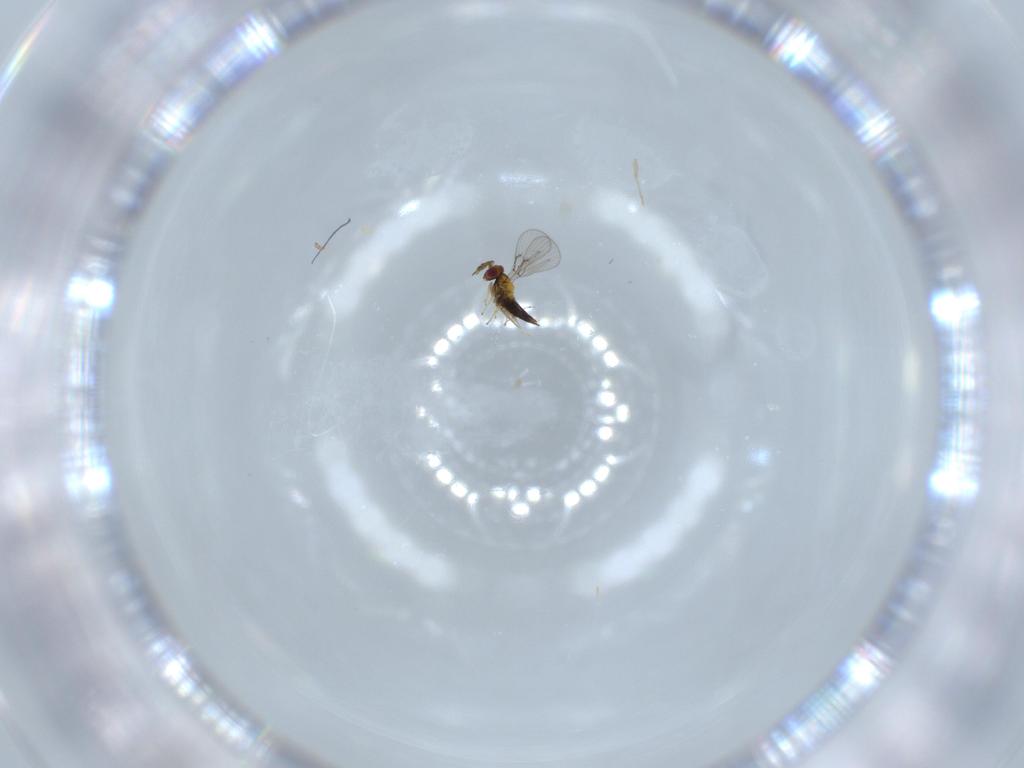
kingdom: Animalia
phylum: Arthropoda
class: Insecta
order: Hymenoptera
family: Trichogrammatidae
